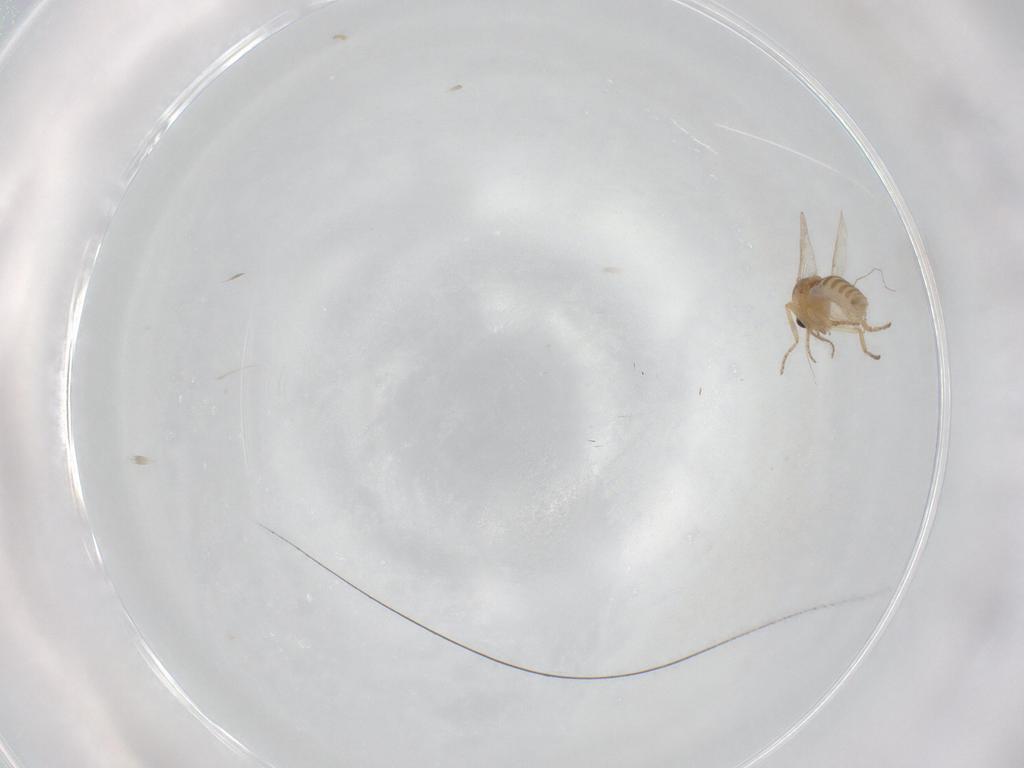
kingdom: Animalia
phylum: Arthropoda
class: Insecta
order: Diptera
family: Ceratopogonidae
